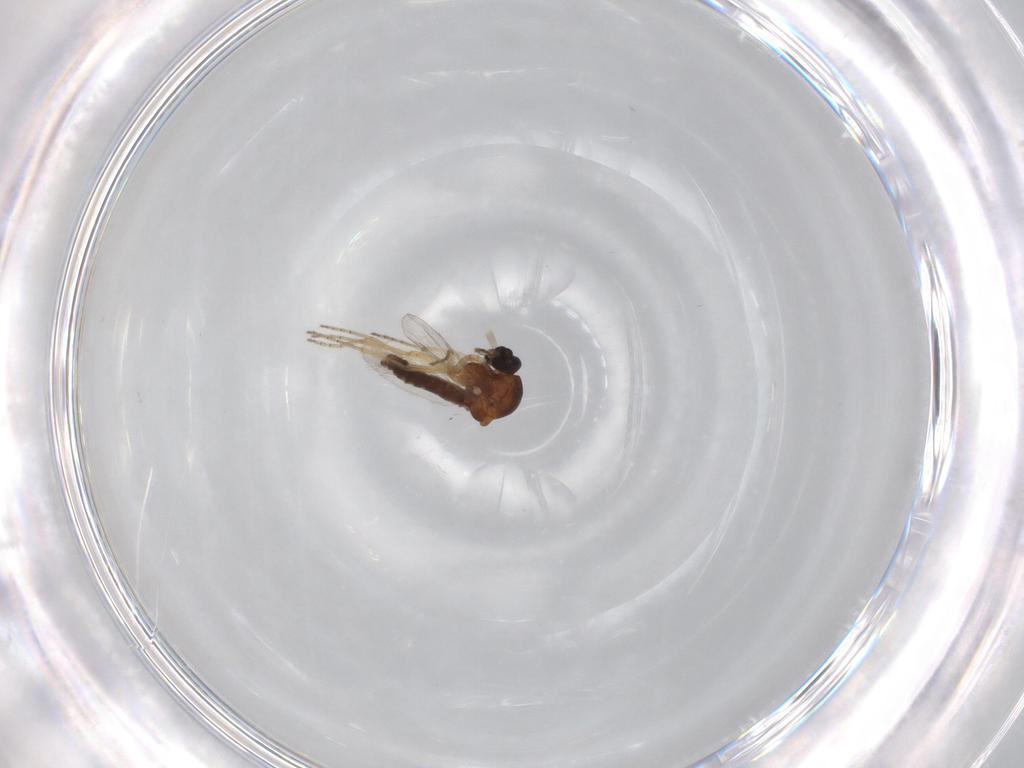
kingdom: Animalia
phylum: Arthropoda
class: Insecta
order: Diptera
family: Ceratopogonidae
